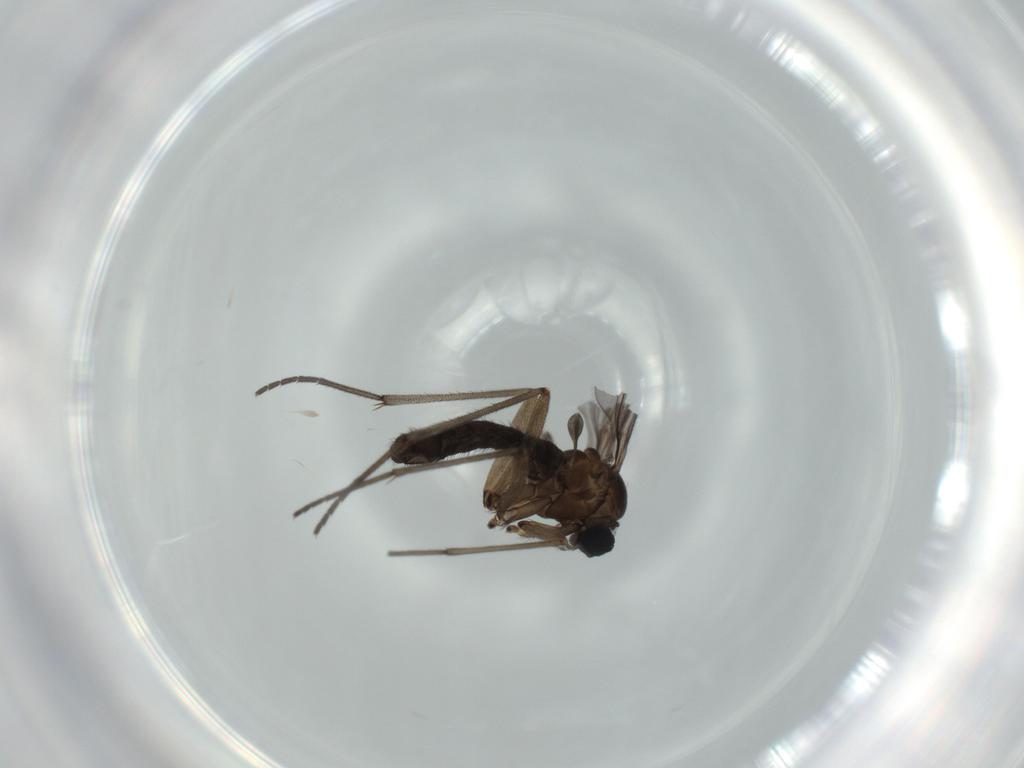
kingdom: Animalia
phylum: Arthropoda
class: Insecta
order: Diptera
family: Sciaridae
